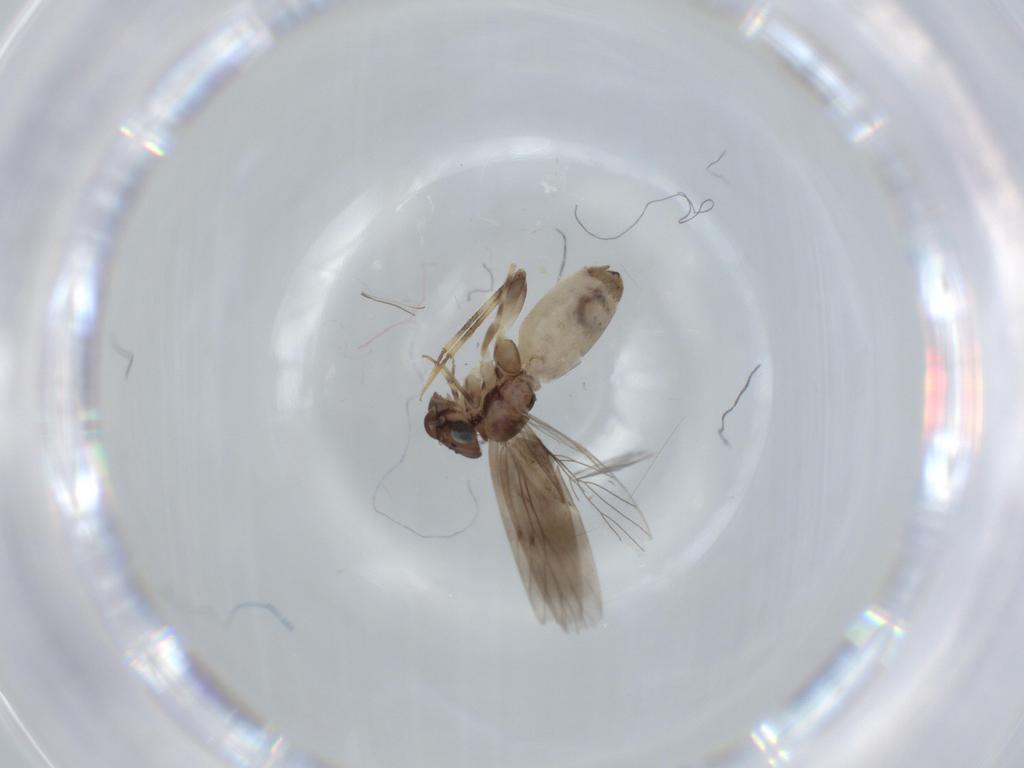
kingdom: Animalia
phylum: Arthropoda
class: Insecta
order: Psocodea
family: Lepidopsocidae
